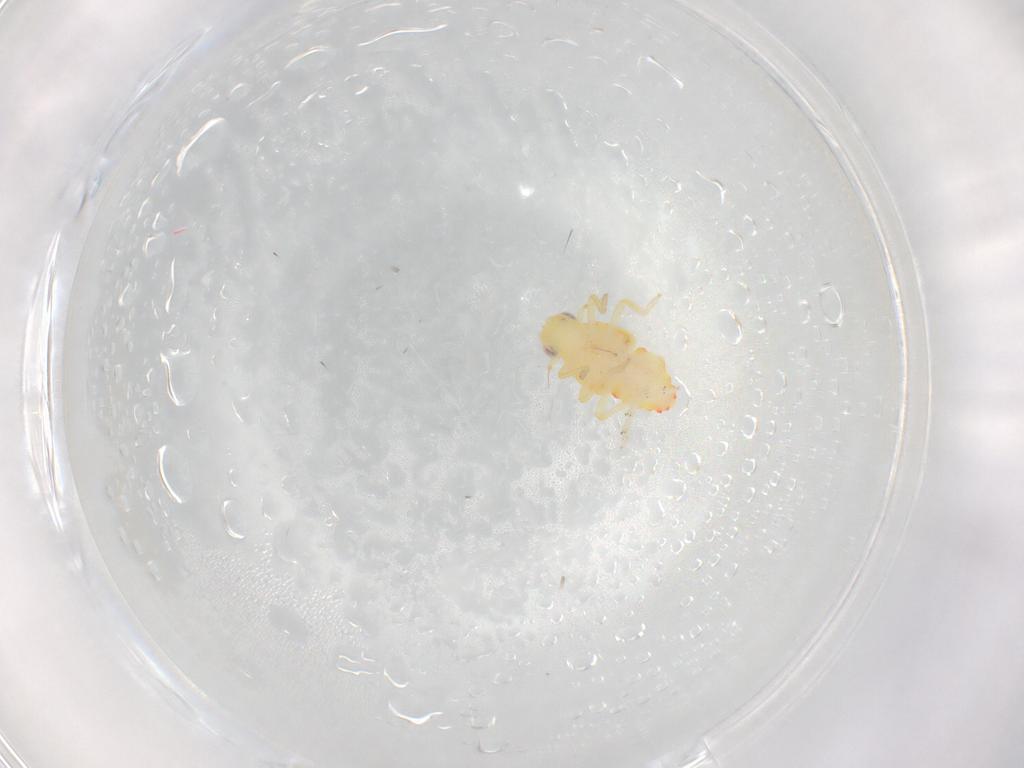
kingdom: Animalia
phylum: Arthropoda
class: Insecta
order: Hemiptera
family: Tropiduchidae
